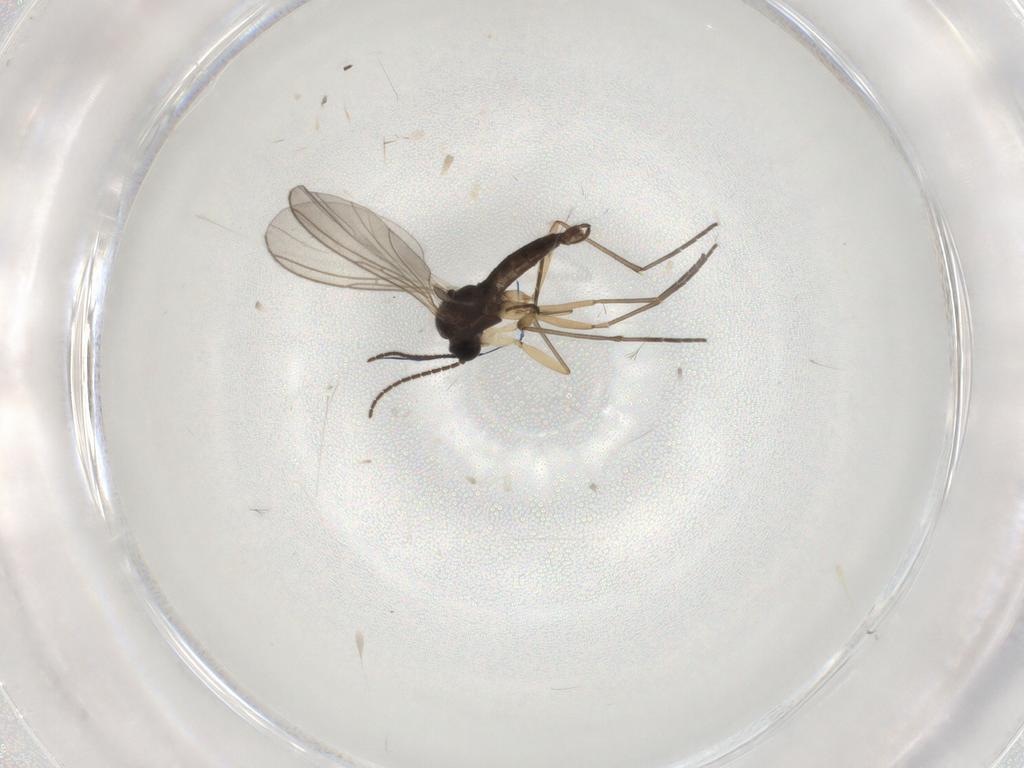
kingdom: Animalia
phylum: Arthropoda
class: Insecta
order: Diptera
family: Sciaridae
